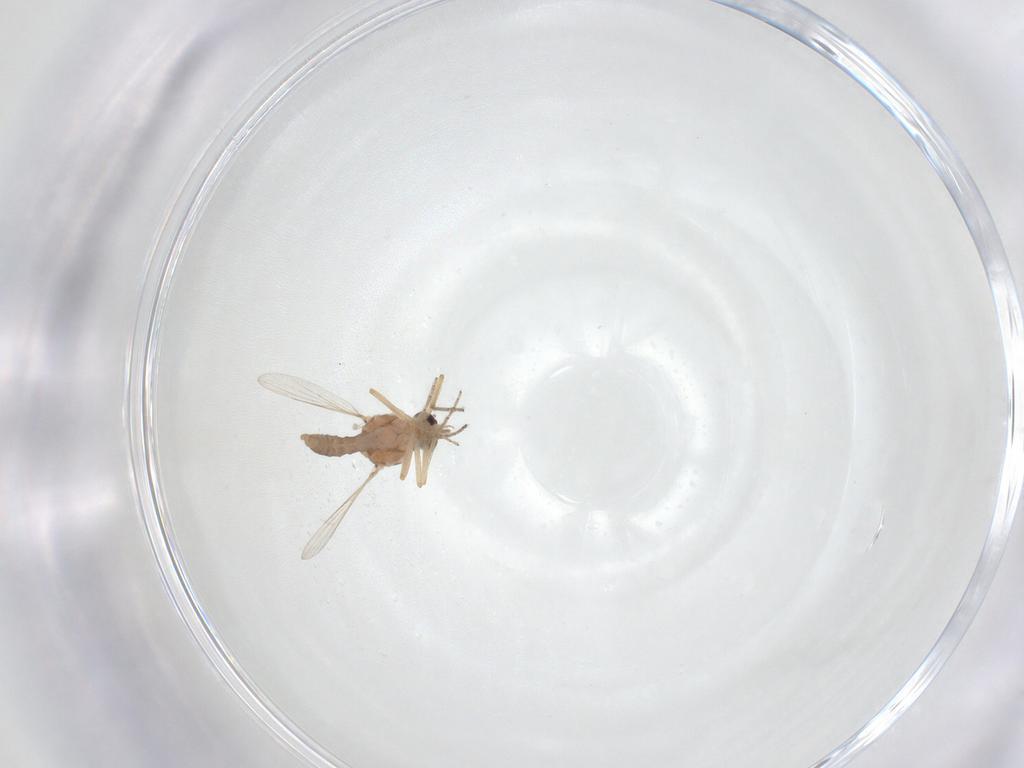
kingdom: Animalia
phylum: Arthropoda
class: Insecta
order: Diptera
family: Ceratopogonidae
